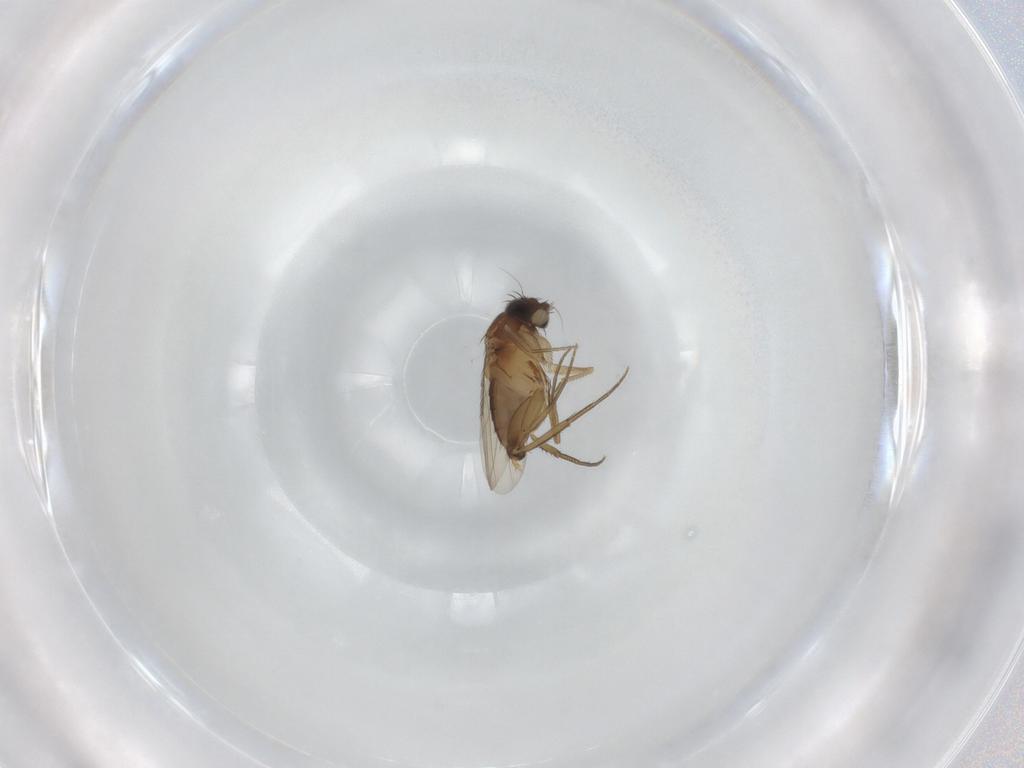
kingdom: Animalia
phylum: Arthropoda
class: Insecta
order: Diptera
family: Phoridae
